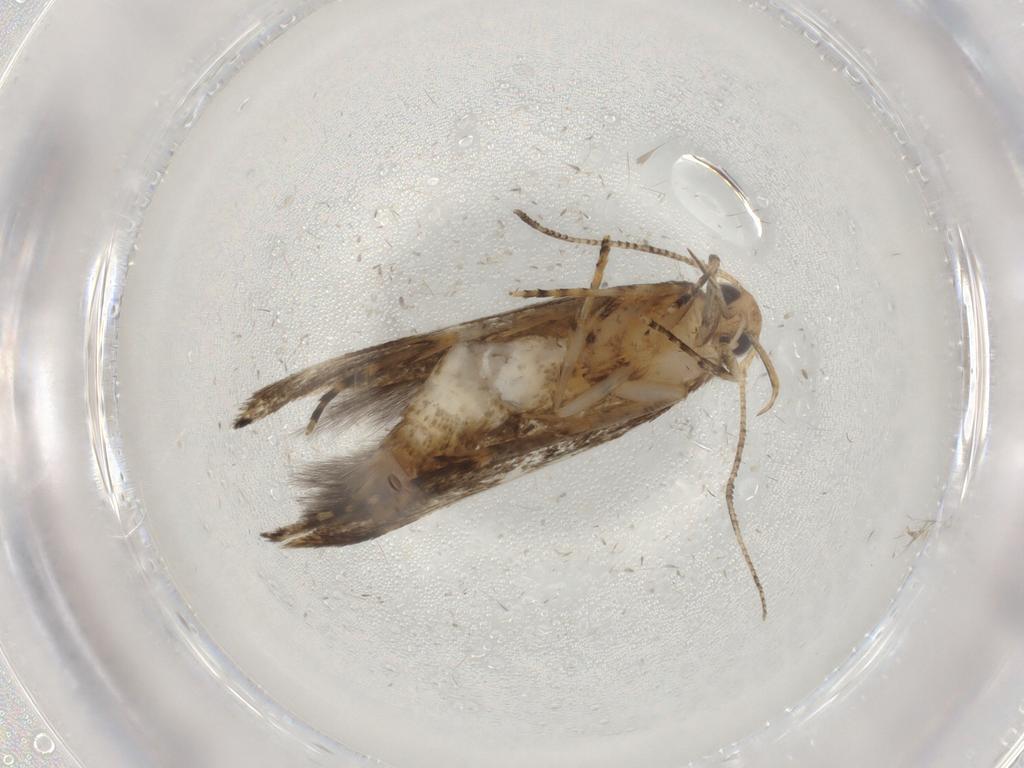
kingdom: Animalia
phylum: Arthropoda
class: Insecta
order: Lepidoptera
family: Cosmopterigidae
